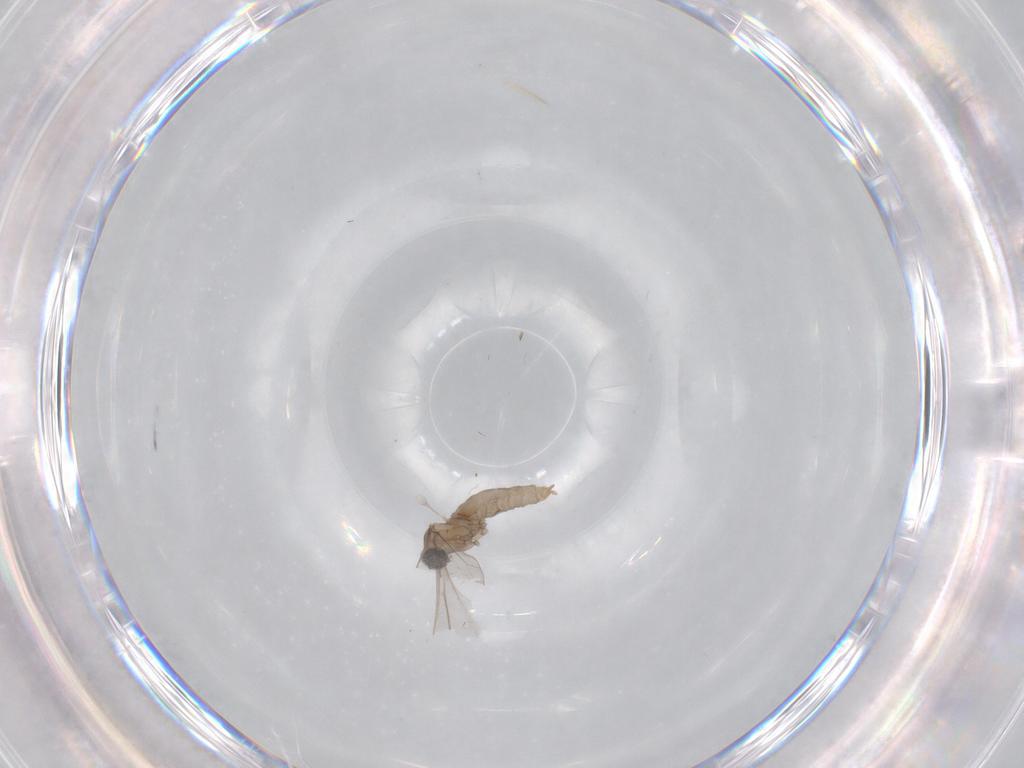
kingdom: Animalia
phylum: Arthropoda
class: Insecta
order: Diptera
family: Cecidomyiidae
